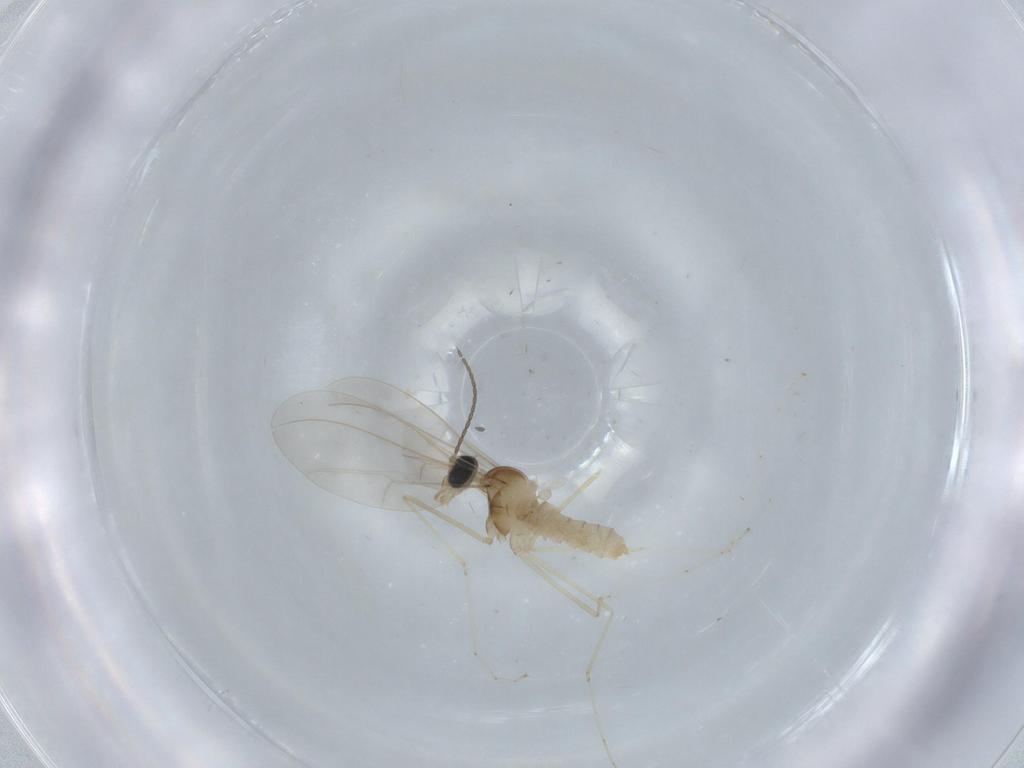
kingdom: Animalia
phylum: Arthropoda
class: Insecta
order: Diptera
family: Cecidomyiidae
